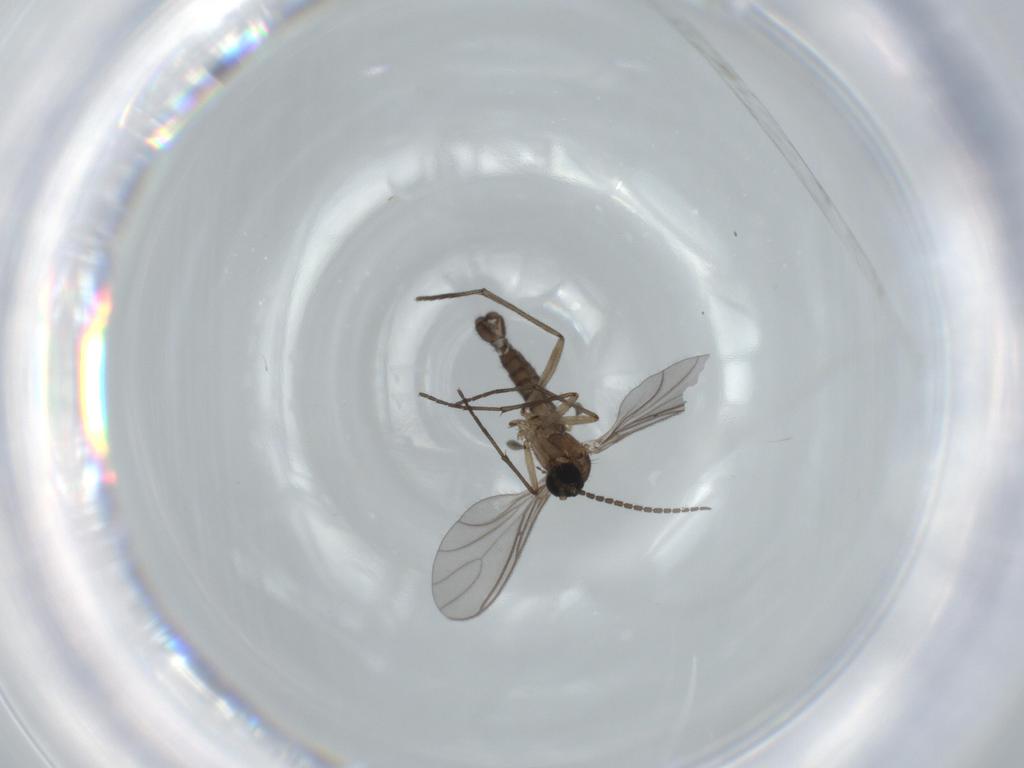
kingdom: Animalia
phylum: Arthropoda
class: Insecta
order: Diptera
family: Sciaridae
